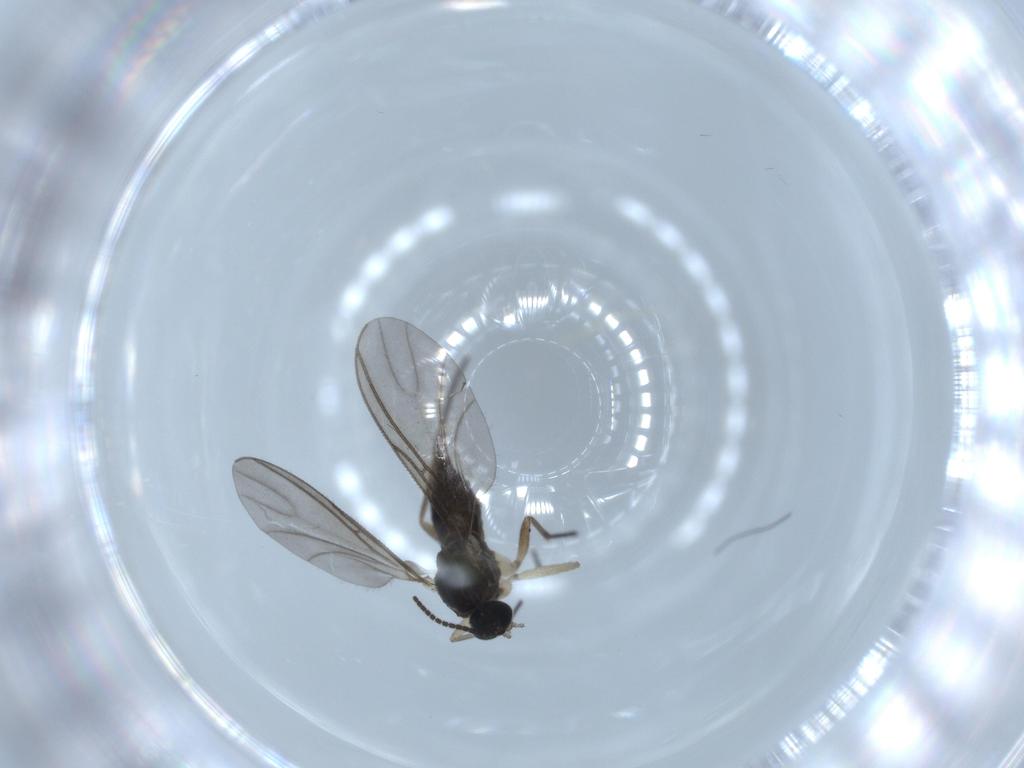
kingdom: Animalia
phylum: Arthropoda
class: Insecta
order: Diptera
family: Sciaridae
